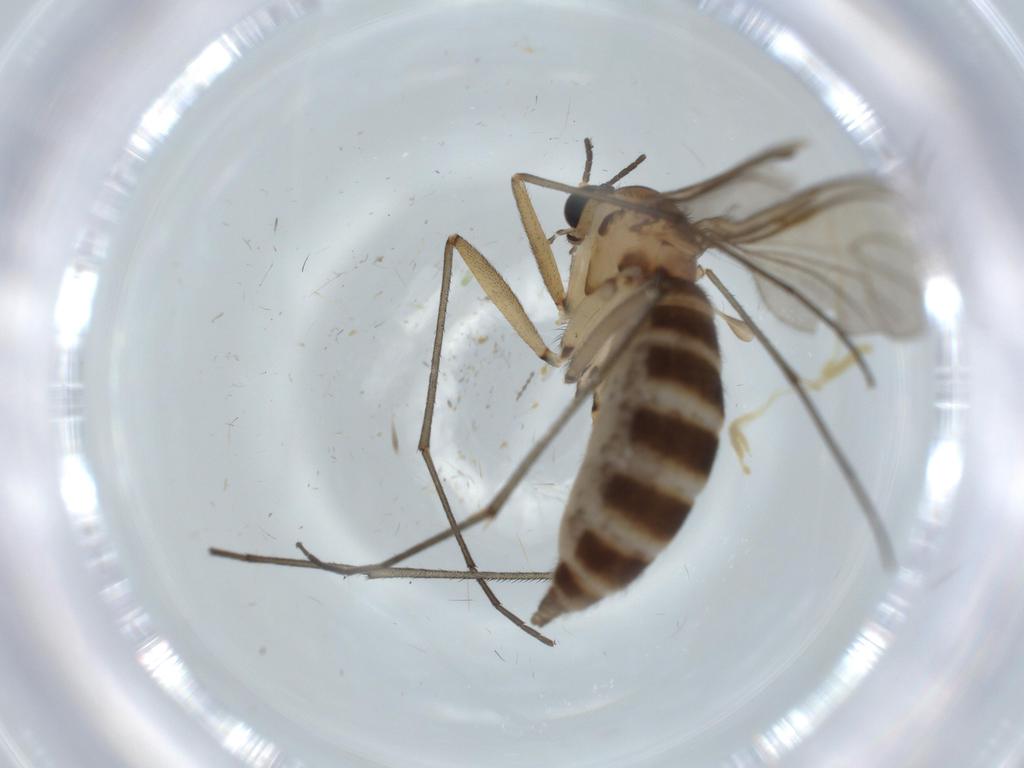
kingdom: Animalia
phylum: Arthropoda
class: Insecta
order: Diptera
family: Sciaridae
